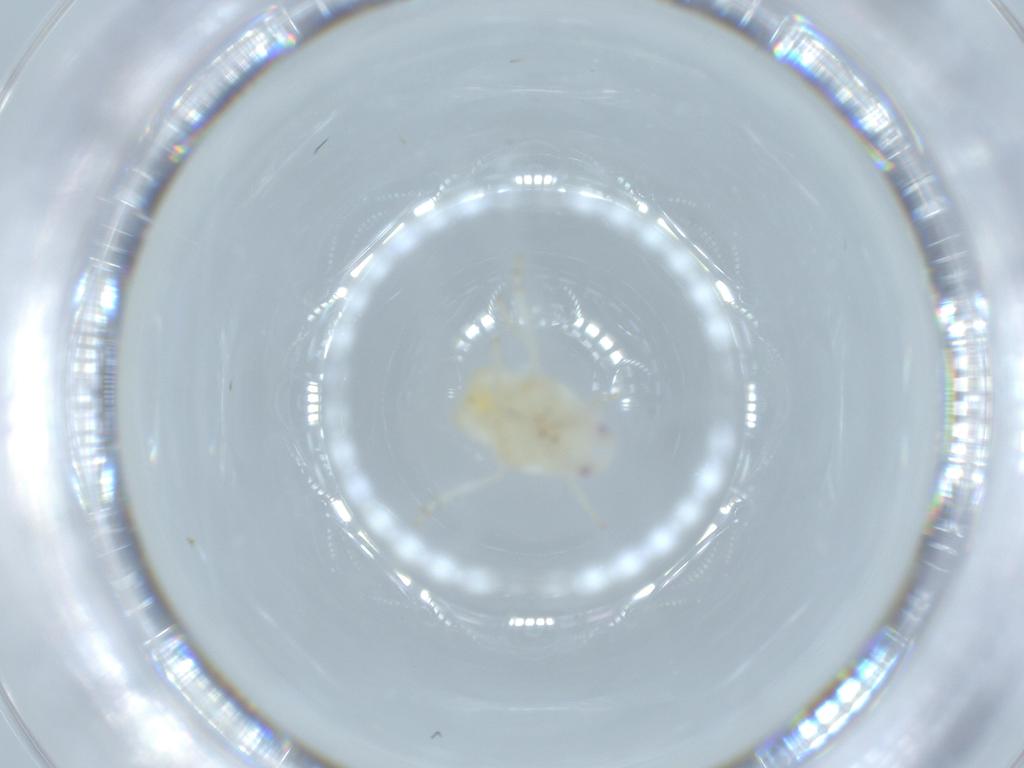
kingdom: Animalia
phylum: Arthropoda
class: Insecta
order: Hemiptera
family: Flatidae
